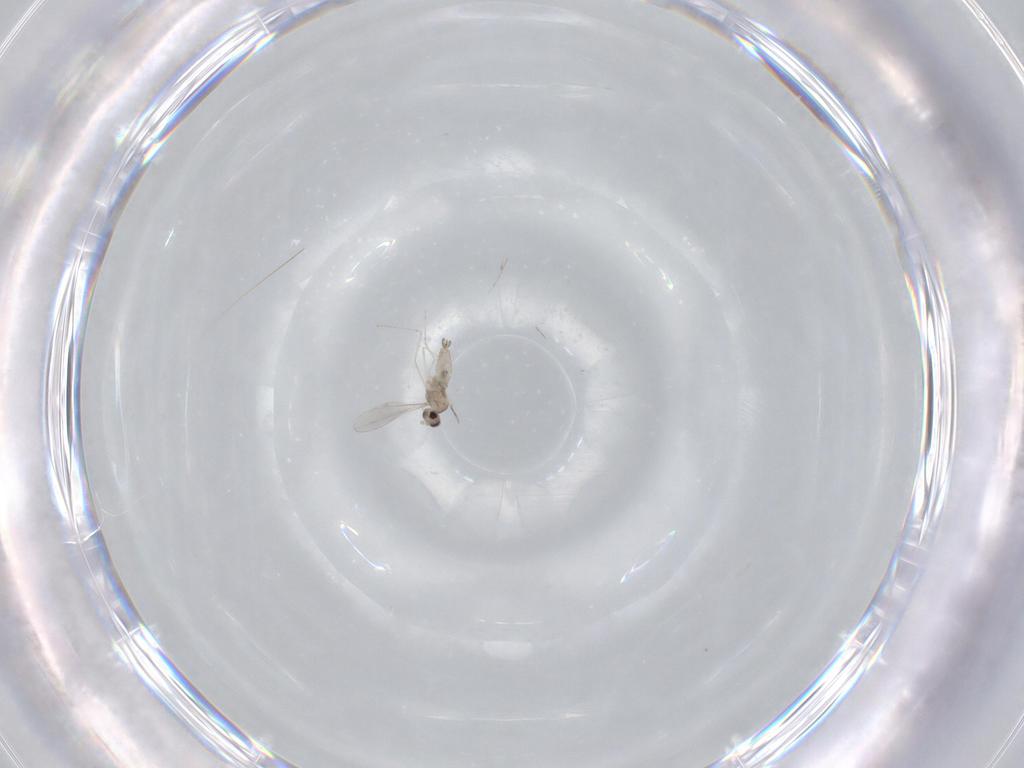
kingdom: Animalia
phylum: Arthropoda
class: Insecta
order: Diptera
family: Cecidomyiidae
